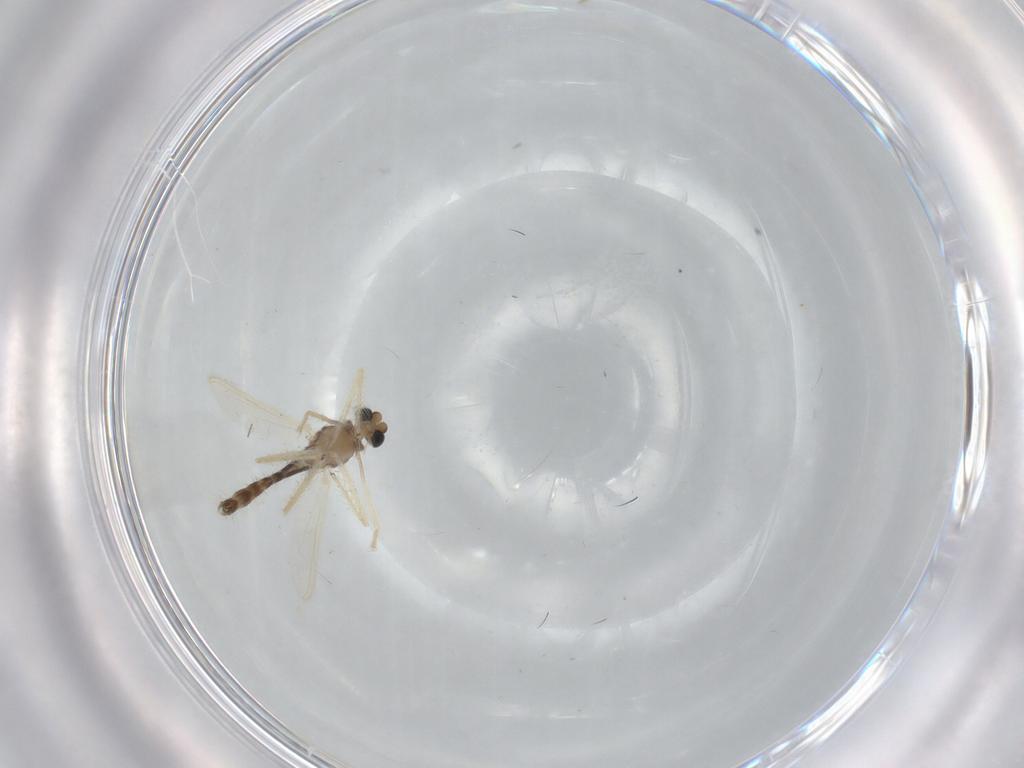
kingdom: Animalia
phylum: Arthropoda
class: Insecta
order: Diptera
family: Chironomidae
